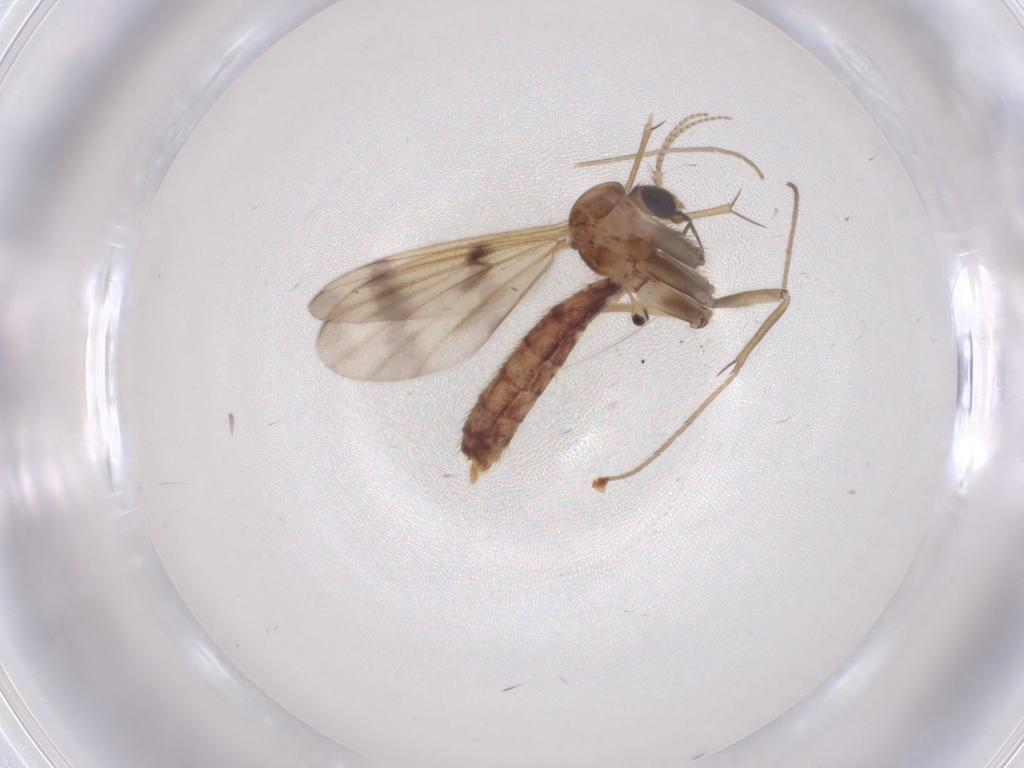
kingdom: Animalia
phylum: Arthropoda
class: Insecta
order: Diptera
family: Mycetophilidae
